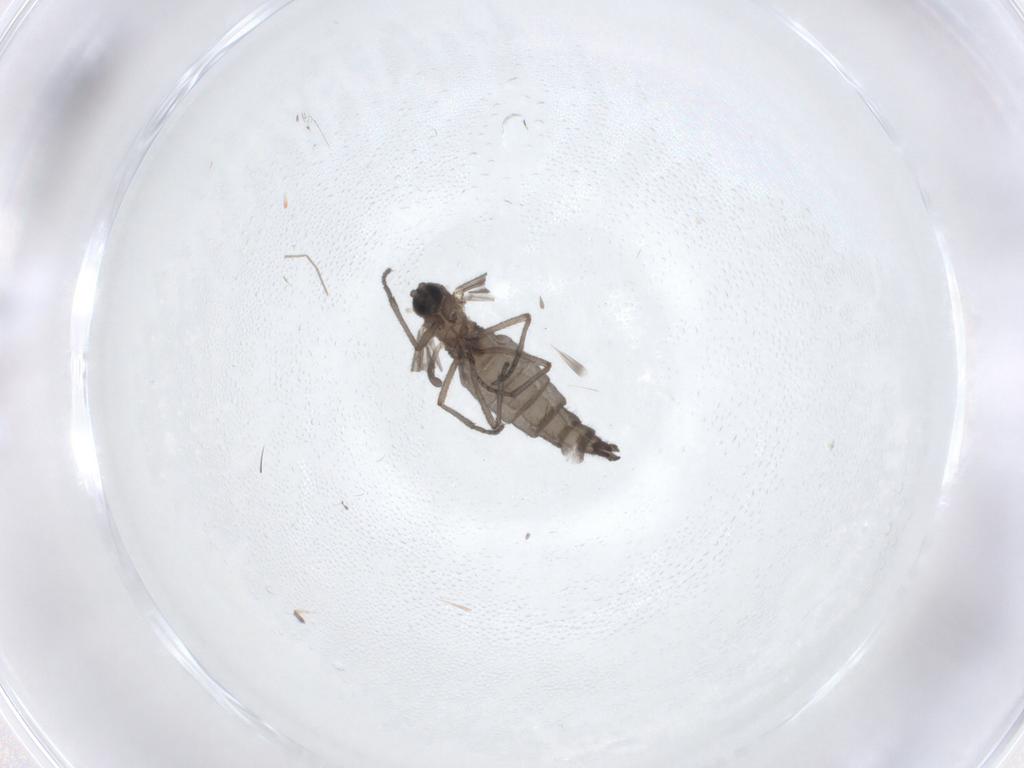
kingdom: Animalia
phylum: Arthropoda
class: Insecta
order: Diptera
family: Sciaridae
